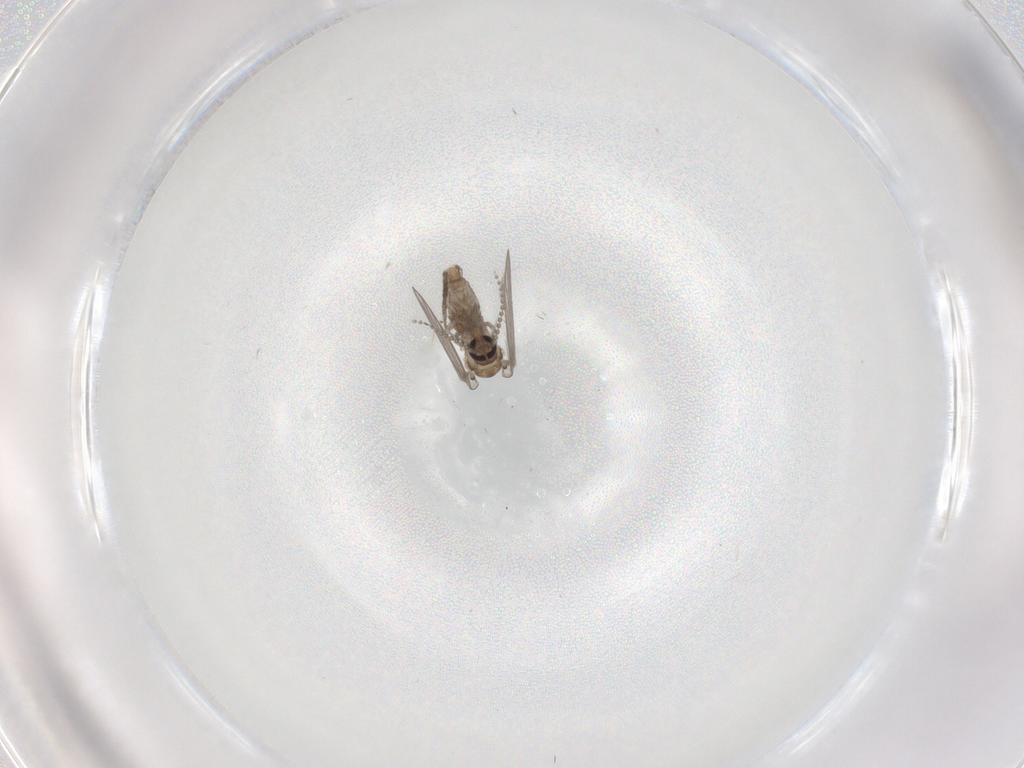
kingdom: Animalia
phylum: Arthropoda
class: Insecta
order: Diptera
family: Psychodidae
